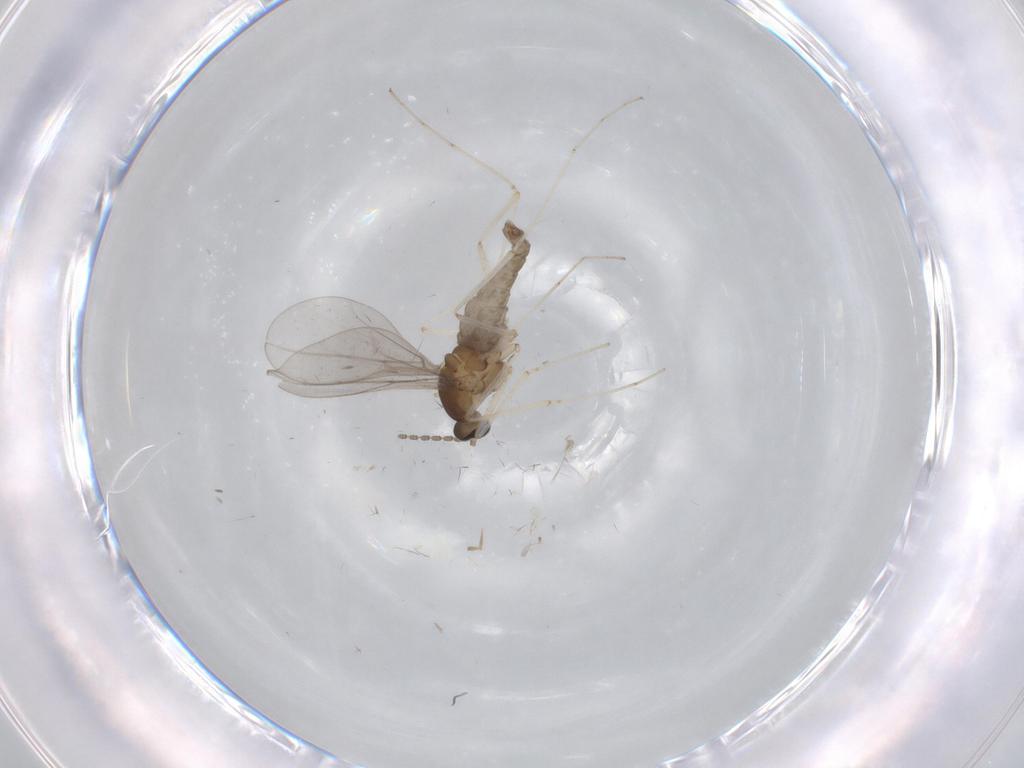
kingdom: Animalia
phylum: Arthropoda
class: Insecta
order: Diptera
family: Cecidomyiidae
